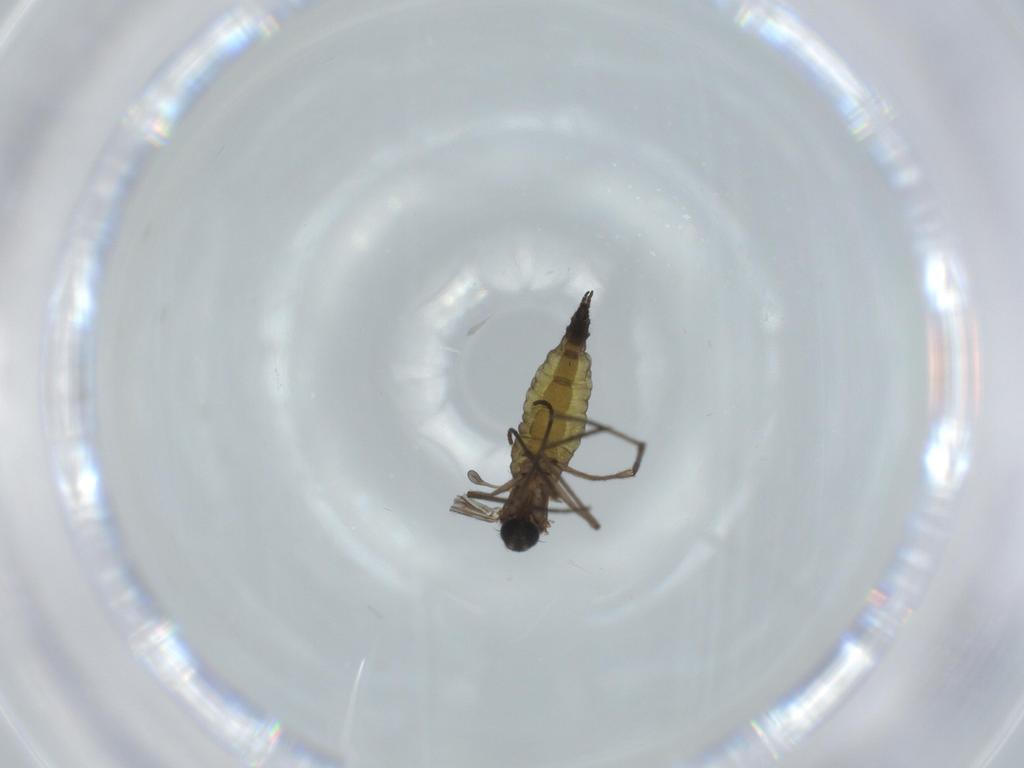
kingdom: Animalia
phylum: Arthropoda
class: Insecta
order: Diptera
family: Sciaridae
